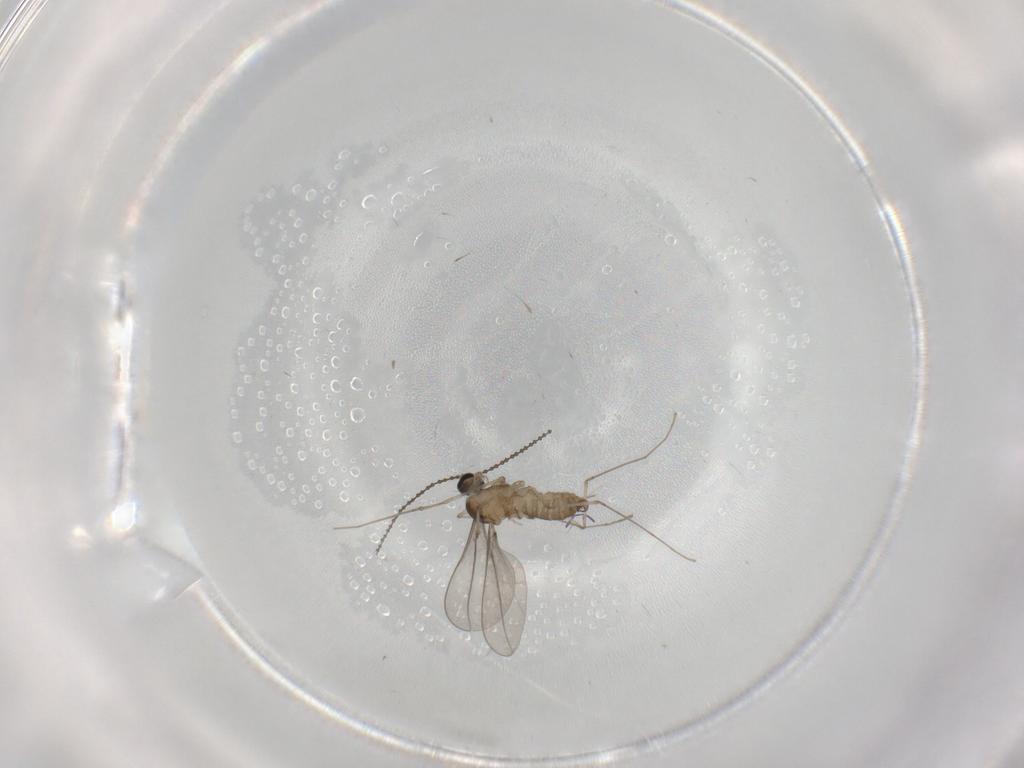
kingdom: Animalia
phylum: Arthropoda
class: Insecta
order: Diptera
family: Cecidomyiidae
